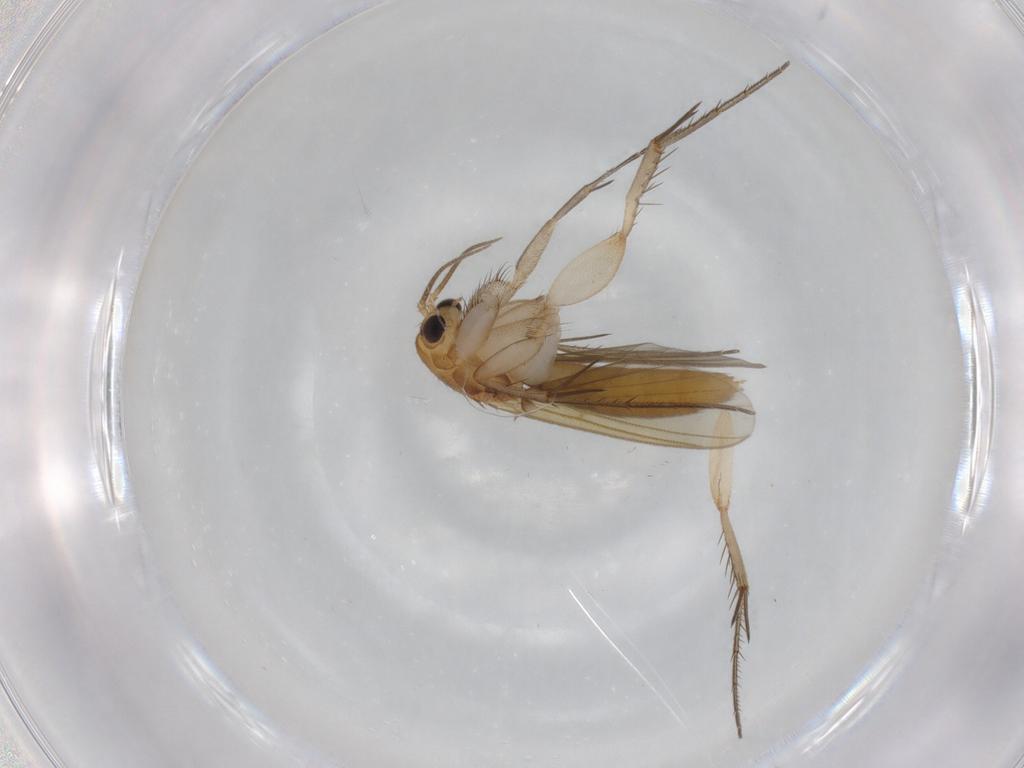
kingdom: Animalia
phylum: Arthropoda
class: Insecta
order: Diptera
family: Mycetophilidae
